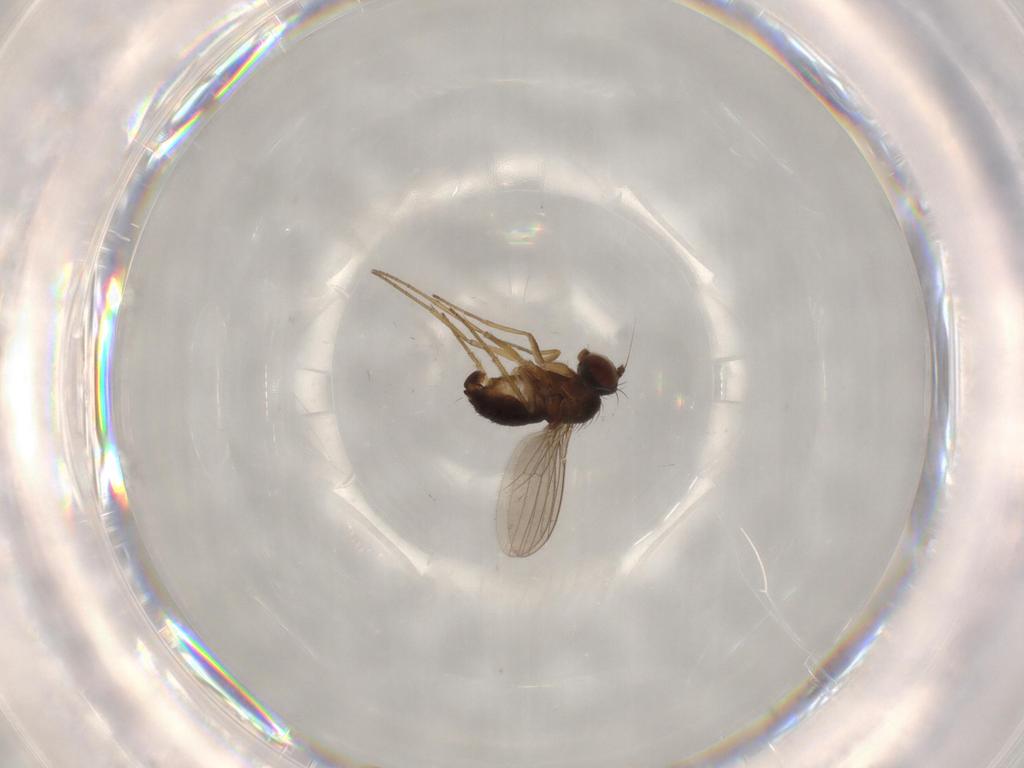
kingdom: Animalia
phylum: Arthropoda
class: Insecta
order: Diptera
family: Dolichopodidae
